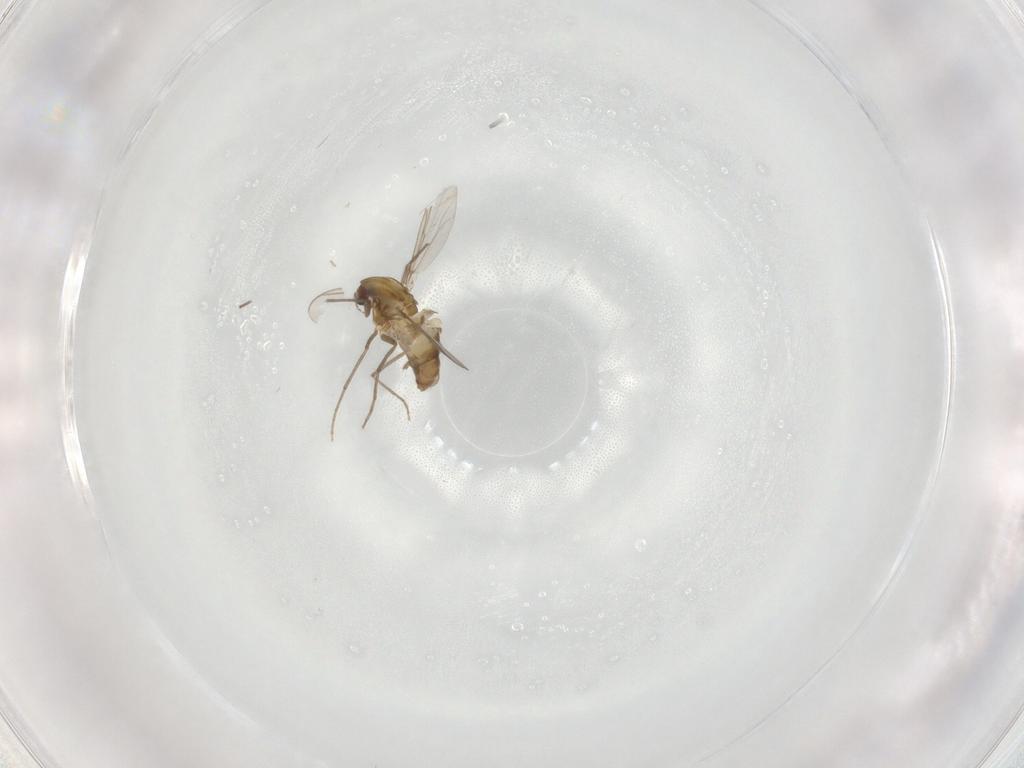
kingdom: Animalia
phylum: Arthropoda
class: Insecta
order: Diptera
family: Chironomidae
